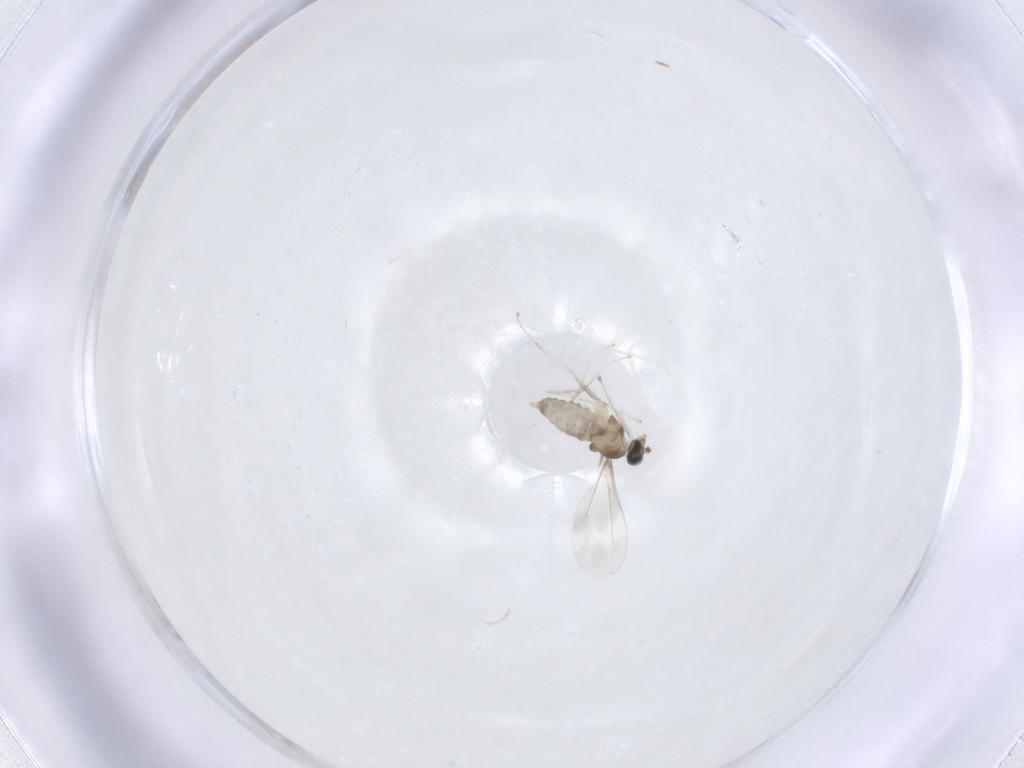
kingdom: Animalia
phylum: Arthropoda
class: Insecta
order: Diptera
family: Cecidomyiidae
